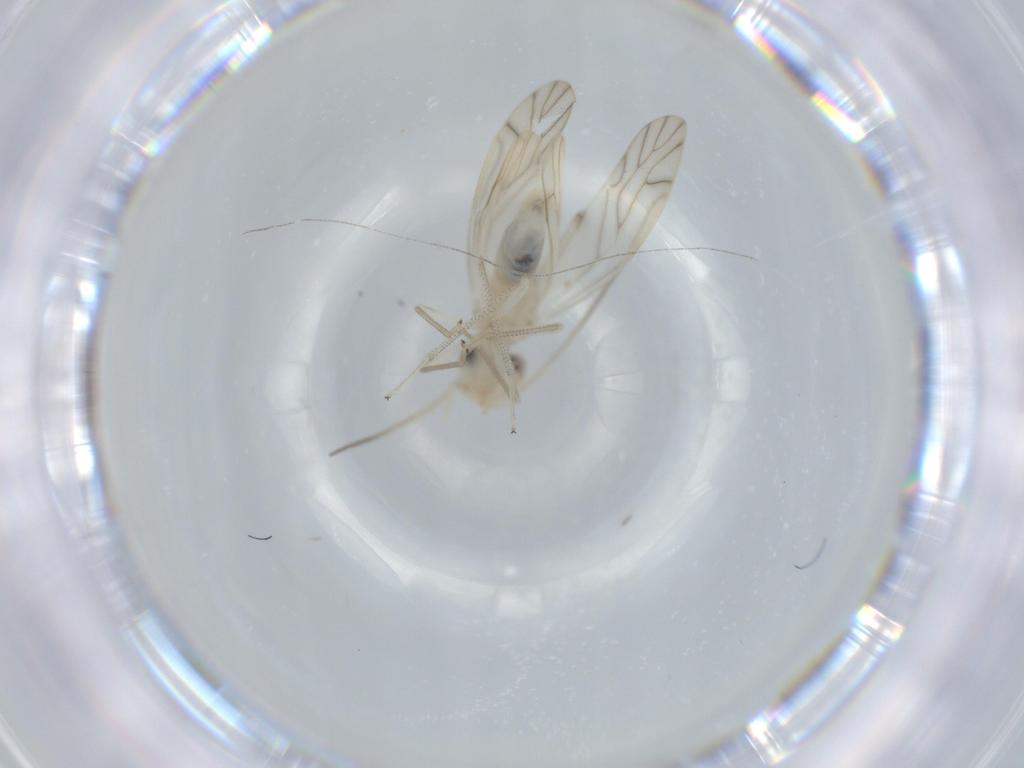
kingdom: Animalia
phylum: Arthropoda
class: Insecta
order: Psocodea
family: Caeciliusidae
